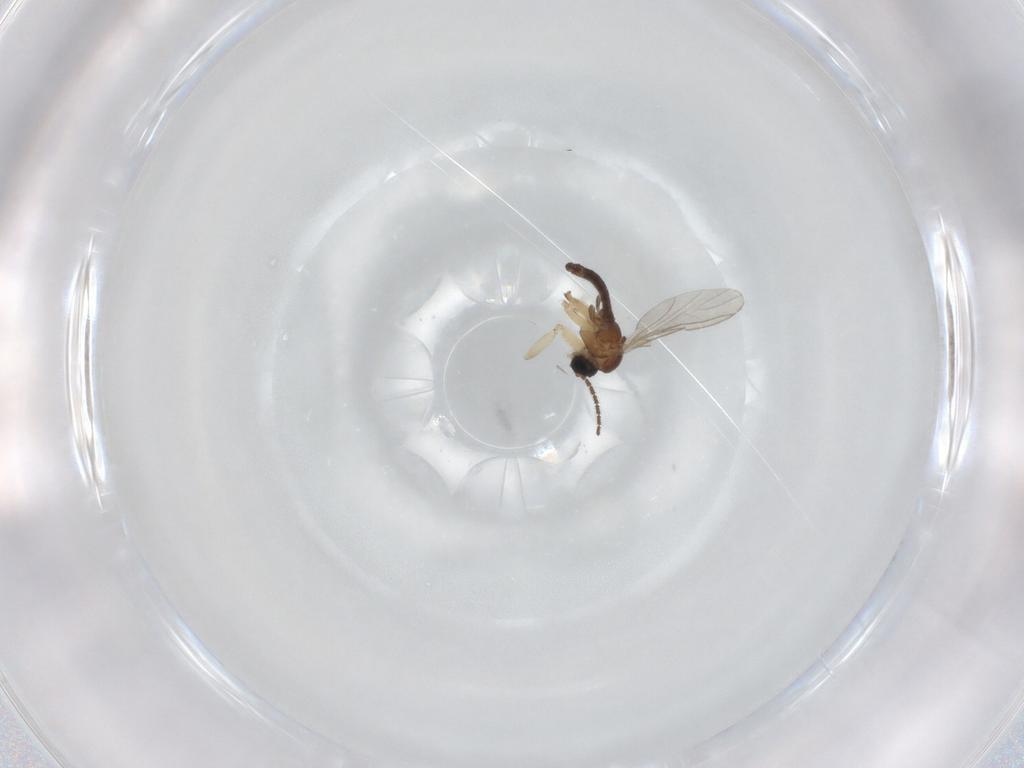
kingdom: Animalia
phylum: Arthropoda
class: Insecta
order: Diptera
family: Sciaridae
